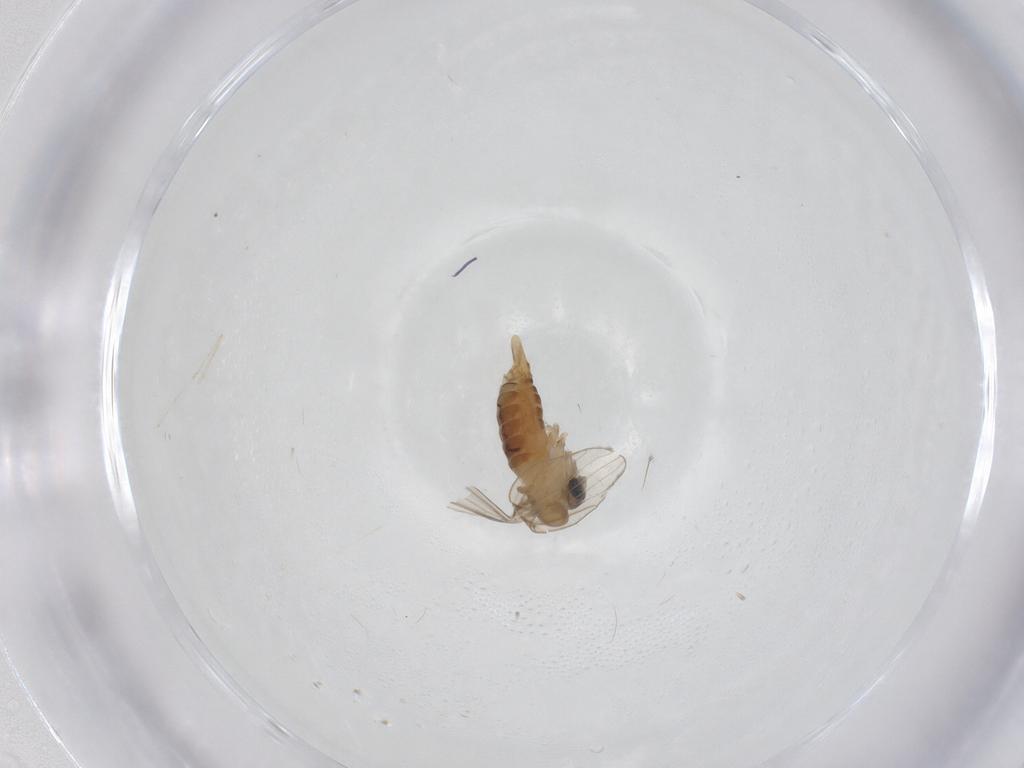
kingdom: Animalia
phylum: Arthropoda
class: Insecta
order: Diptera
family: Psychodidae
